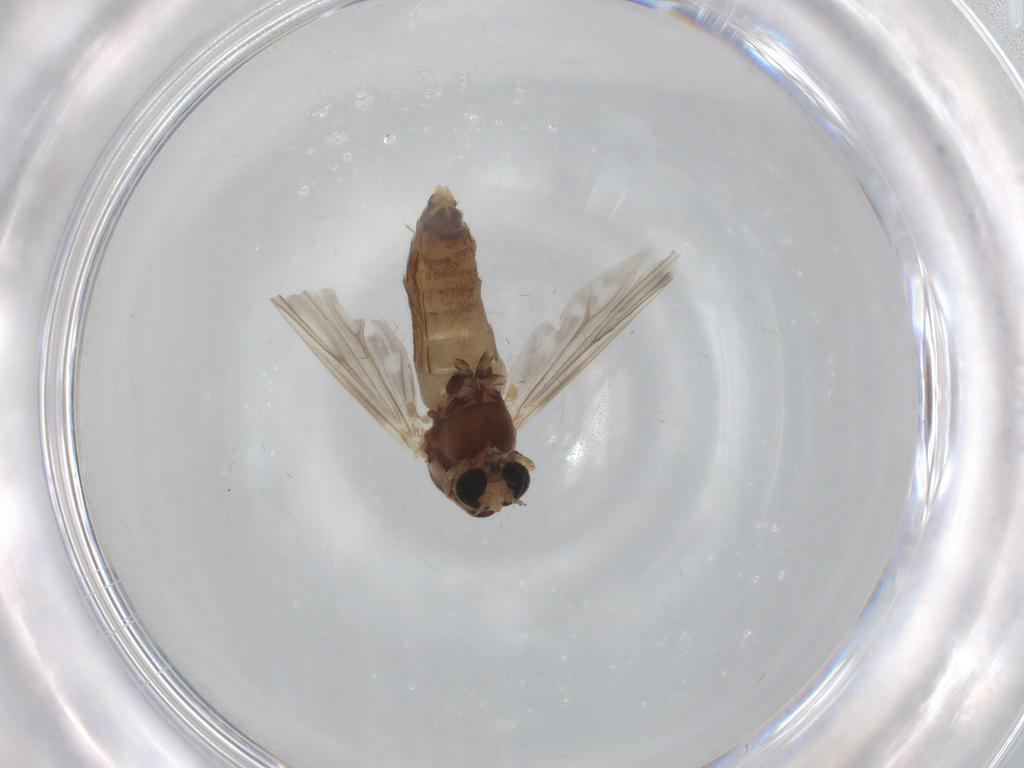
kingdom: Animalia
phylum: Arthropoda
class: Insecta
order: Diptera
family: Chironomidae
